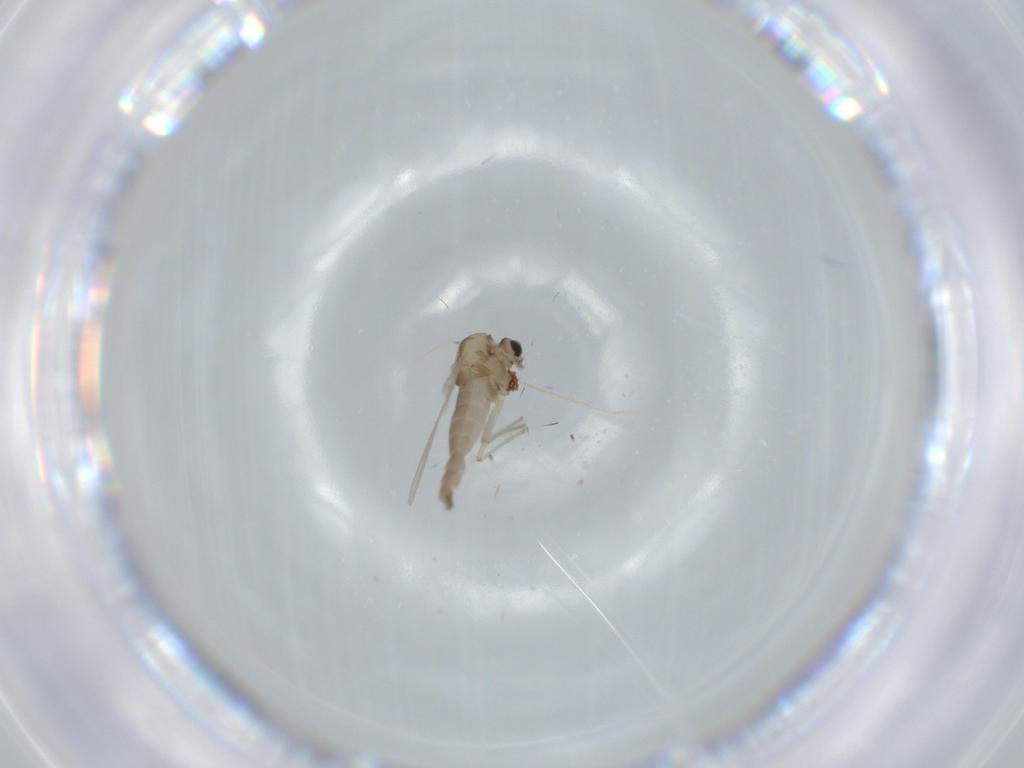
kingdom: Animalia
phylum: Arthropoda
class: Insecta
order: Diptera
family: Chironomidae
